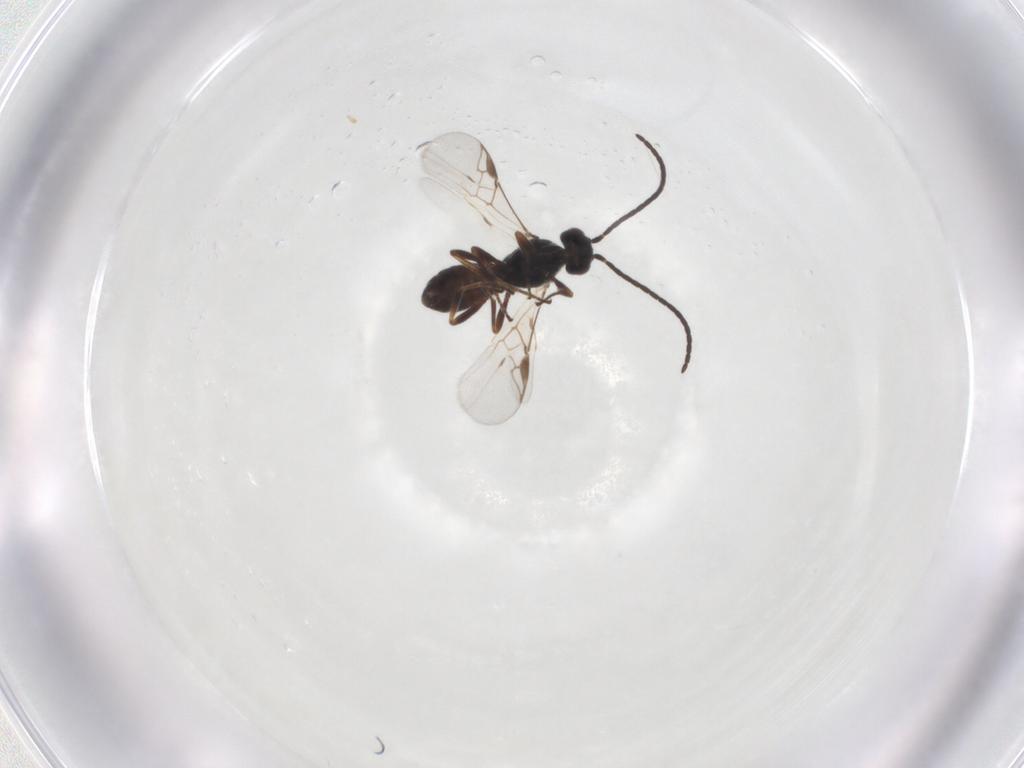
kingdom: Animalia
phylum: Arthropoda
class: Insecta
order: Hymenoptera
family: Braconidae
